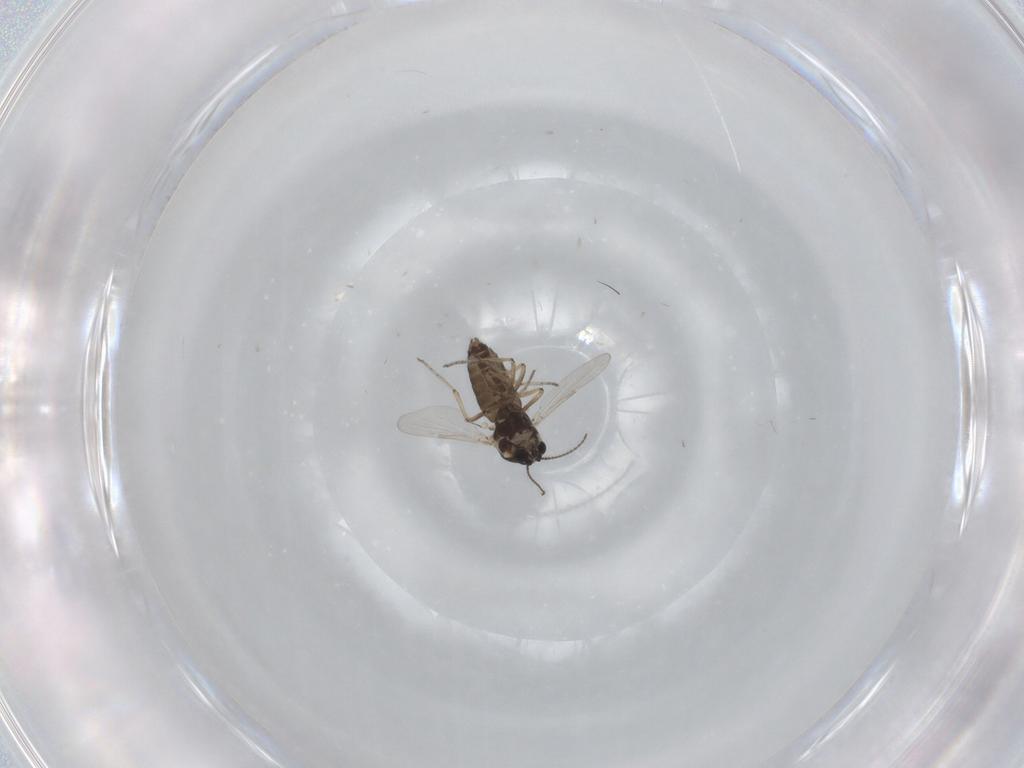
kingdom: Animalia
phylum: Arthropoda
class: Insecta
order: Diptera
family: Ceratopogonidae
